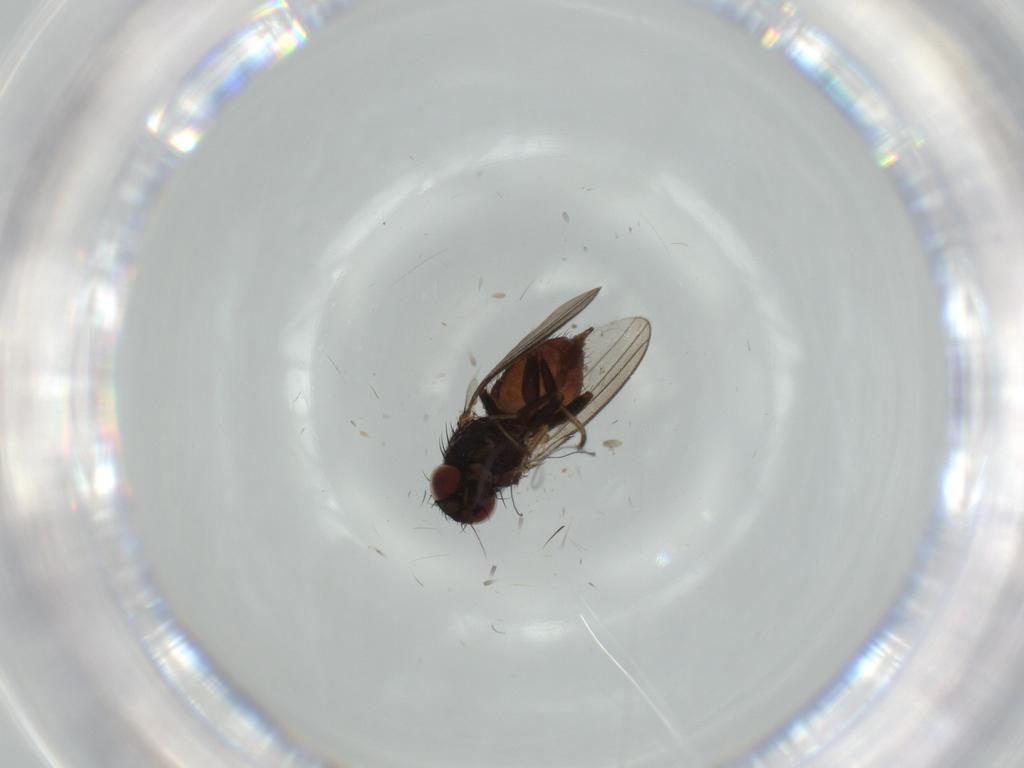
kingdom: Animalia
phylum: Arthropoda
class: Insecta
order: Diptera
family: Milichiidae
